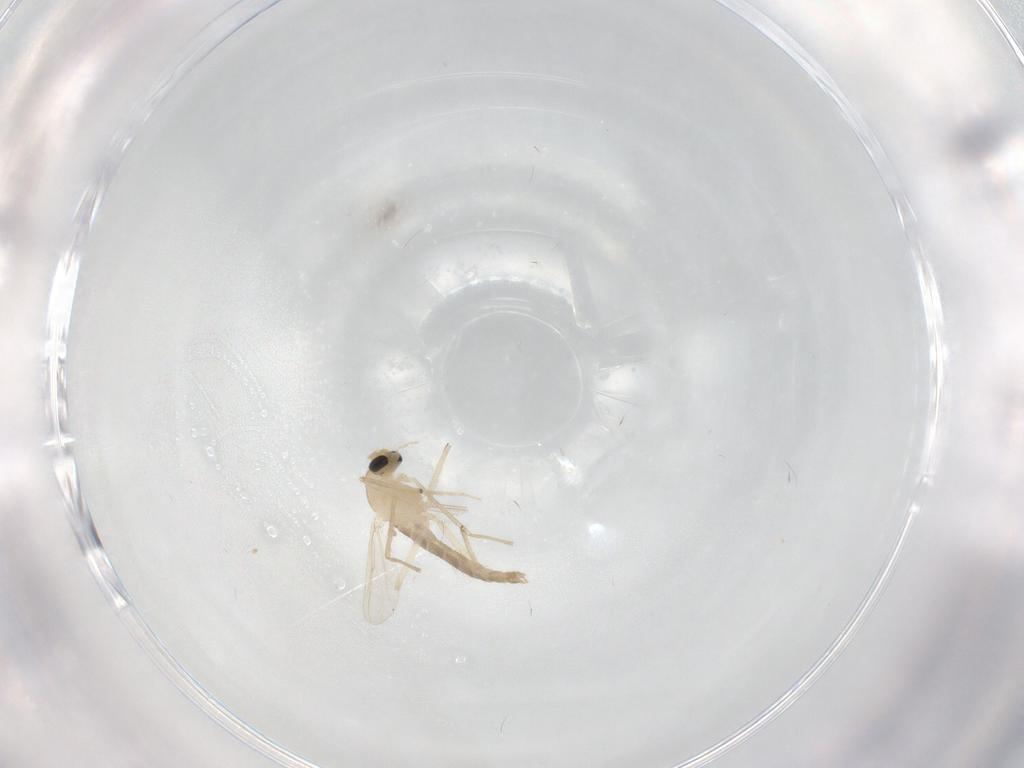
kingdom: Animalia
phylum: Arthropoda
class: Insecta
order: Diptera
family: Chironomidae
